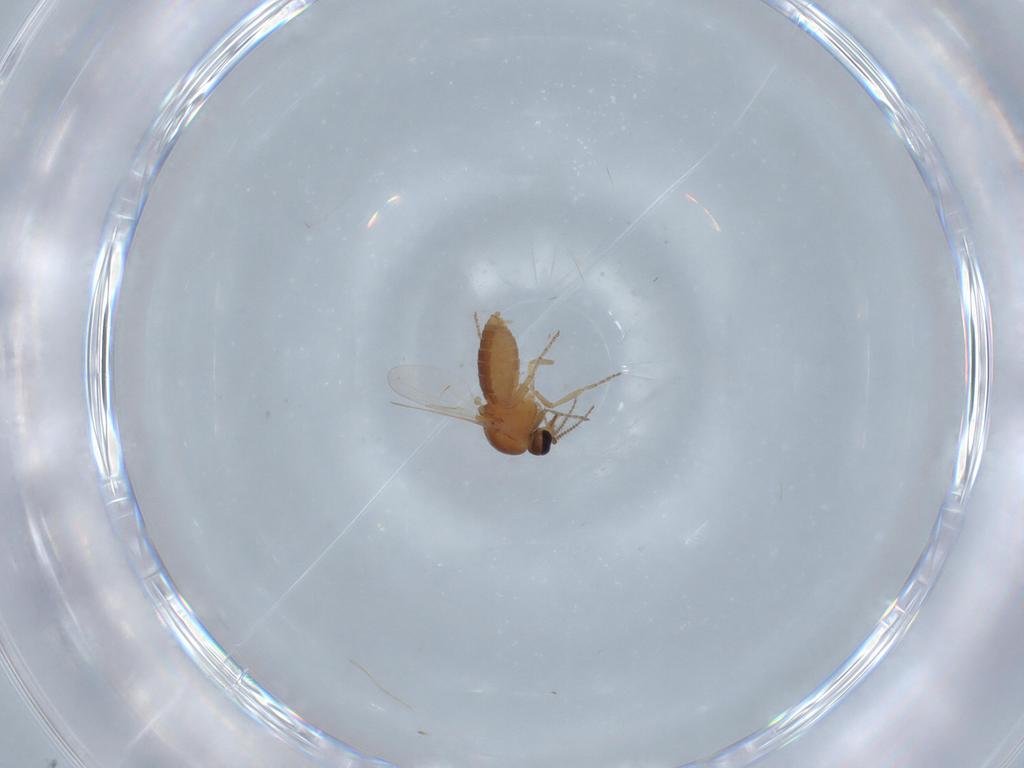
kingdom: Animalia
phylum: Arthropoda
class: Insecta
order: Diptera
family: Ceratopogonidae
